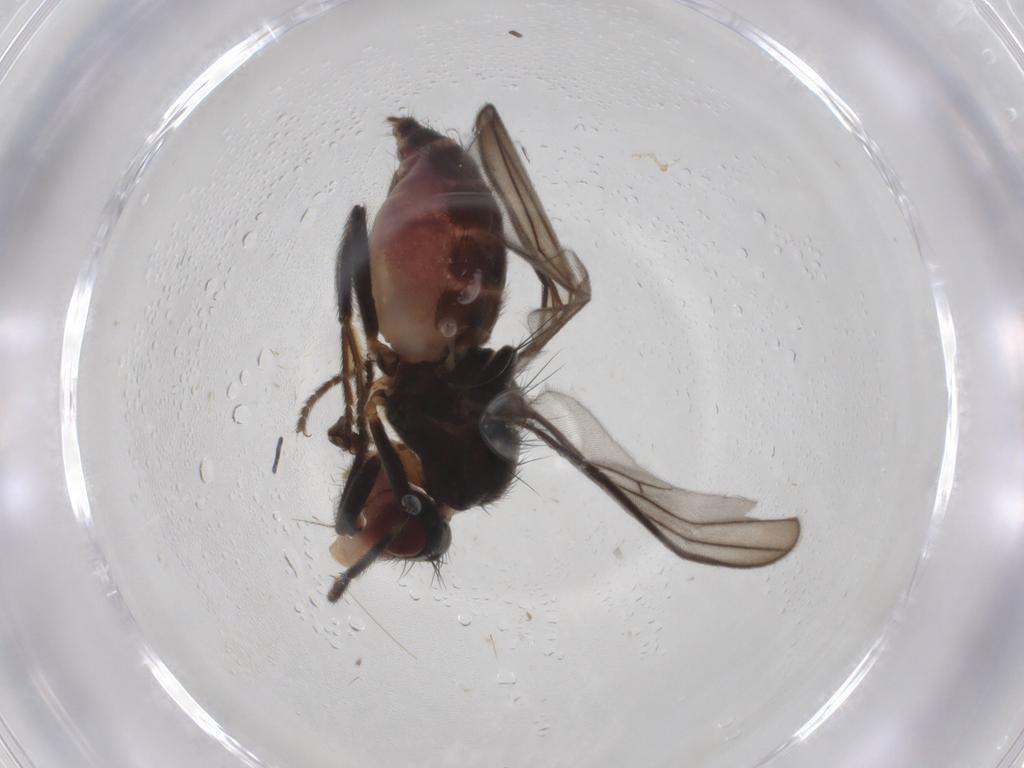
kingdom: Animalia
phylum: Arthropoda
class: Insecta
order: Diptera
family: Chloropidae
